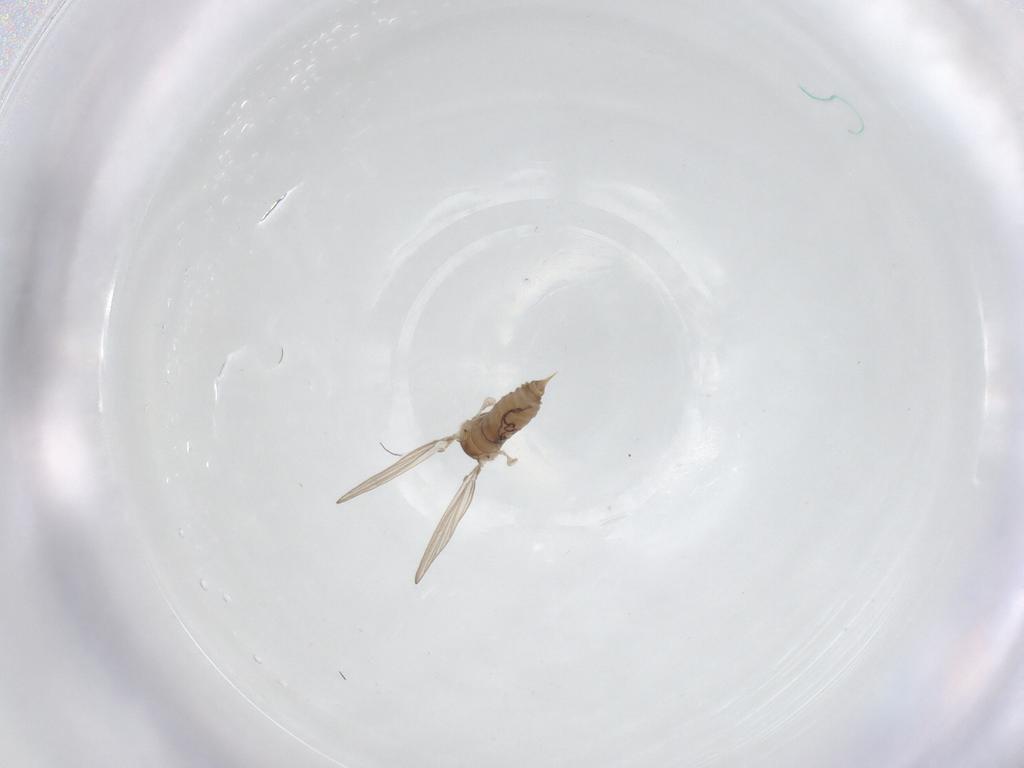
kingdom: Animalia
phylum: Arthropoda
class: Insecta
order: Diptera
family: Psychodidae
